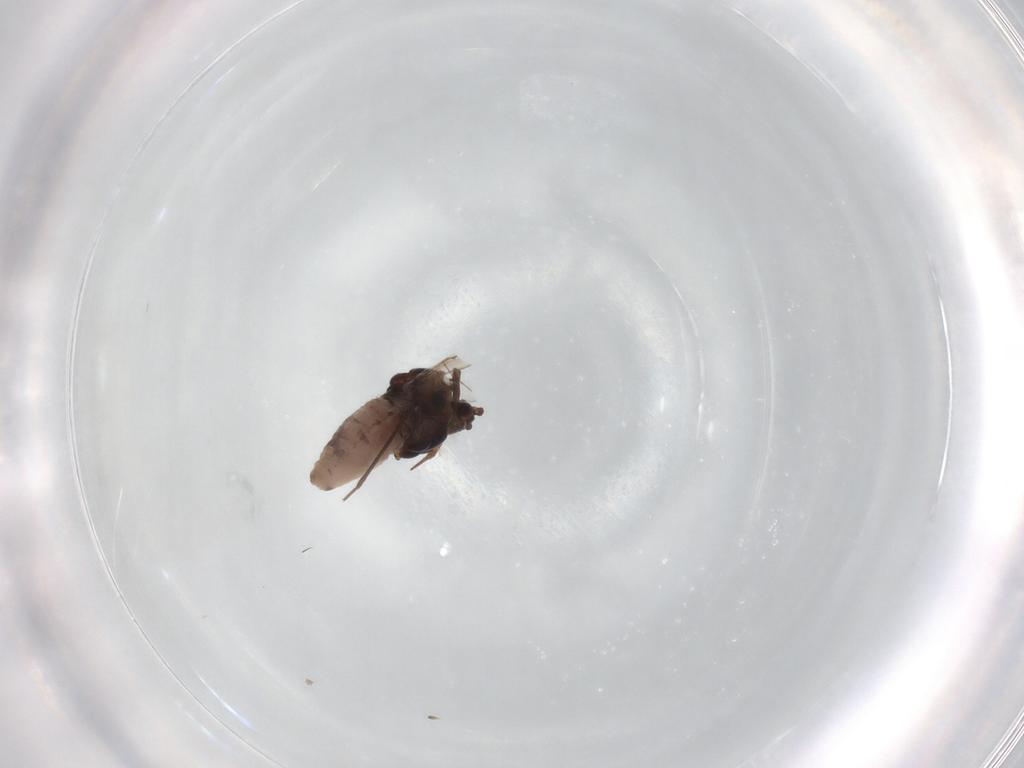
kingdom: Animalia
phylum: Arthropoda
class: Insecta
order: Hemiptera
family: Aphididae
